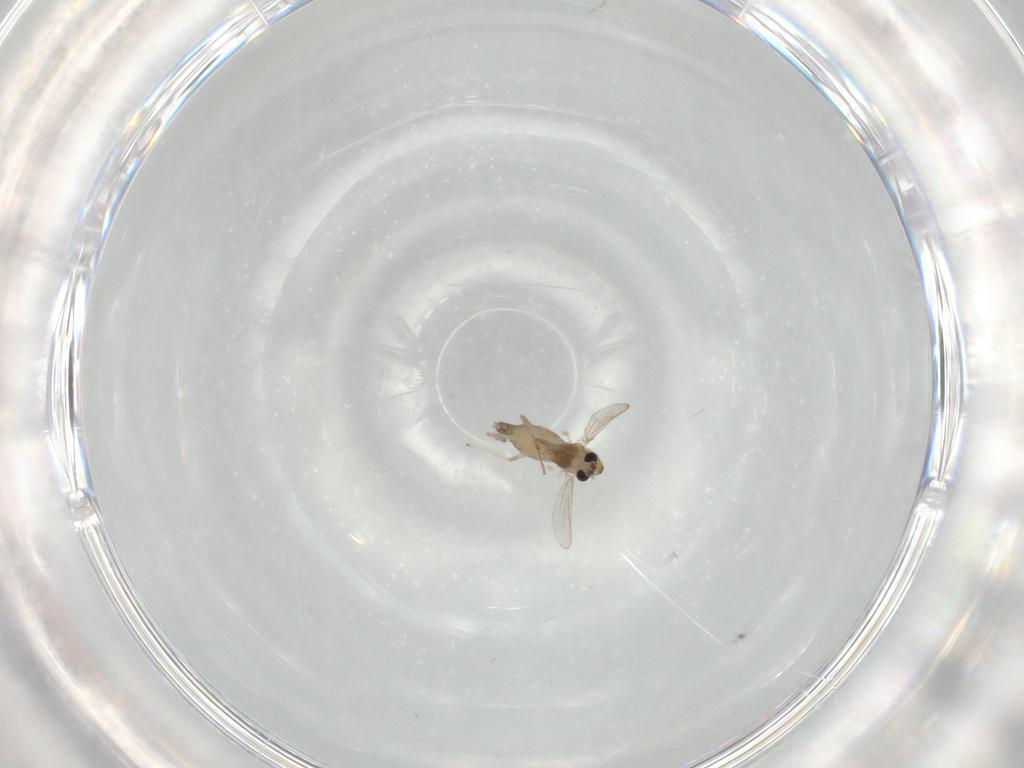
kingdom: Animalia
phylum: Arthropoda
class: Insecta
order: Diptera
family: Chironomidae
